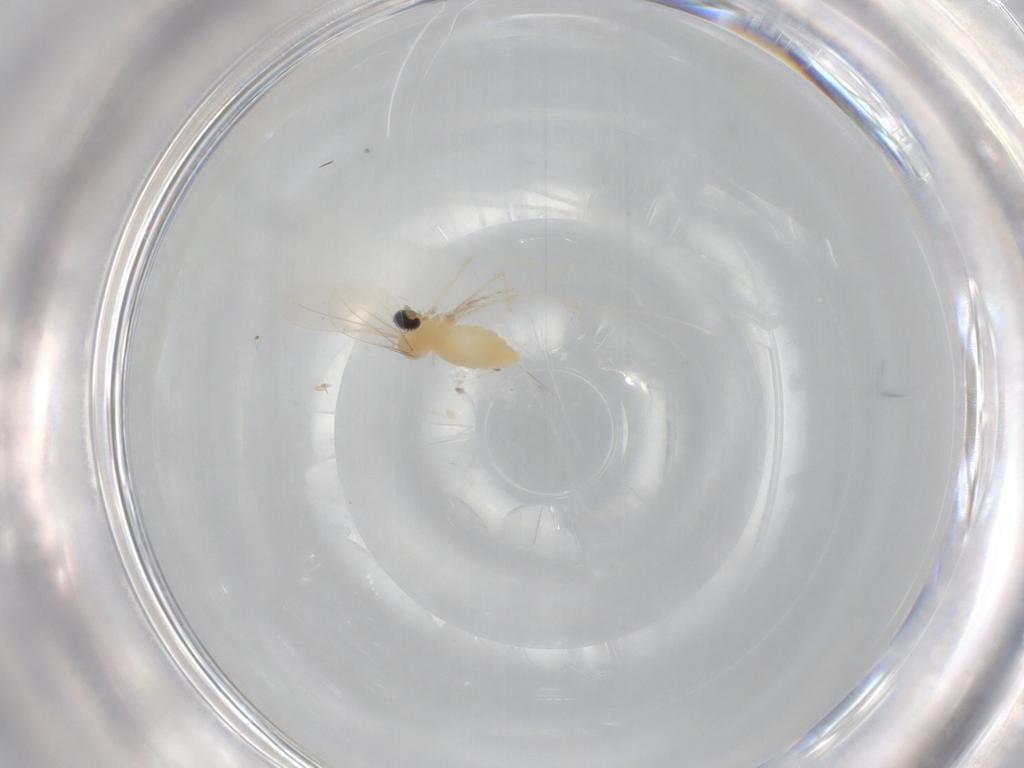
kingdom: Animalia
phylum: Arthropoda
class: Insecta
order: Diptera
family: Cecidomyiidae
